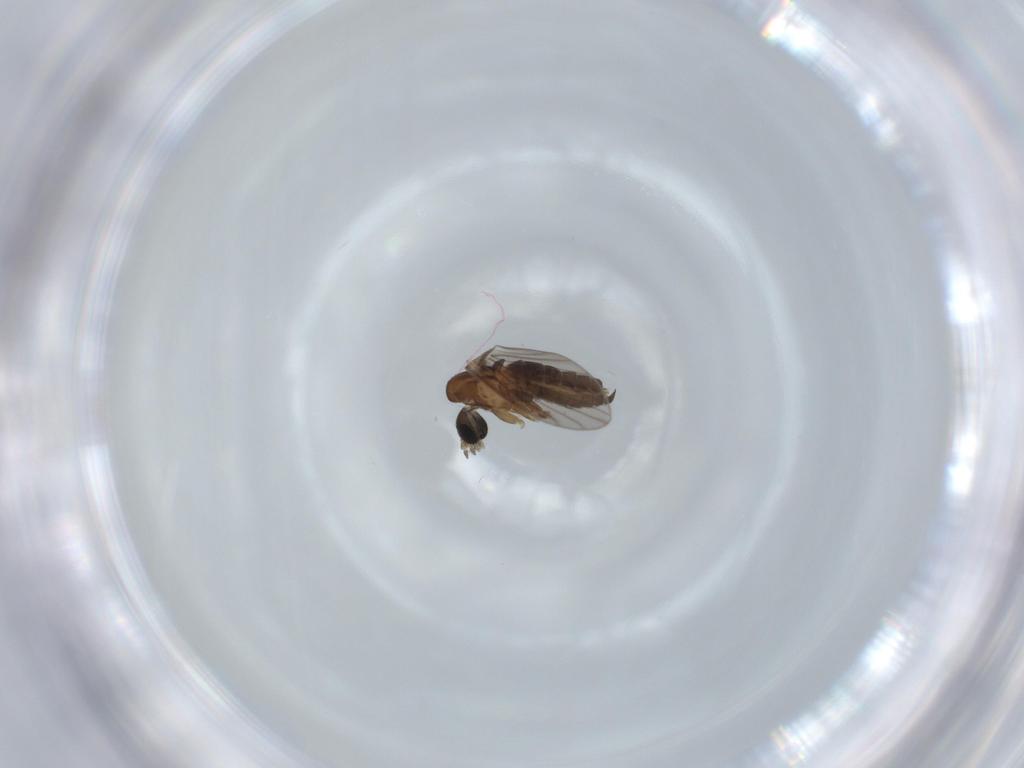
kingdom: Animalia
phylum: Arthropoda
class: Insecta
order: Diptera
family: Psychodidae
